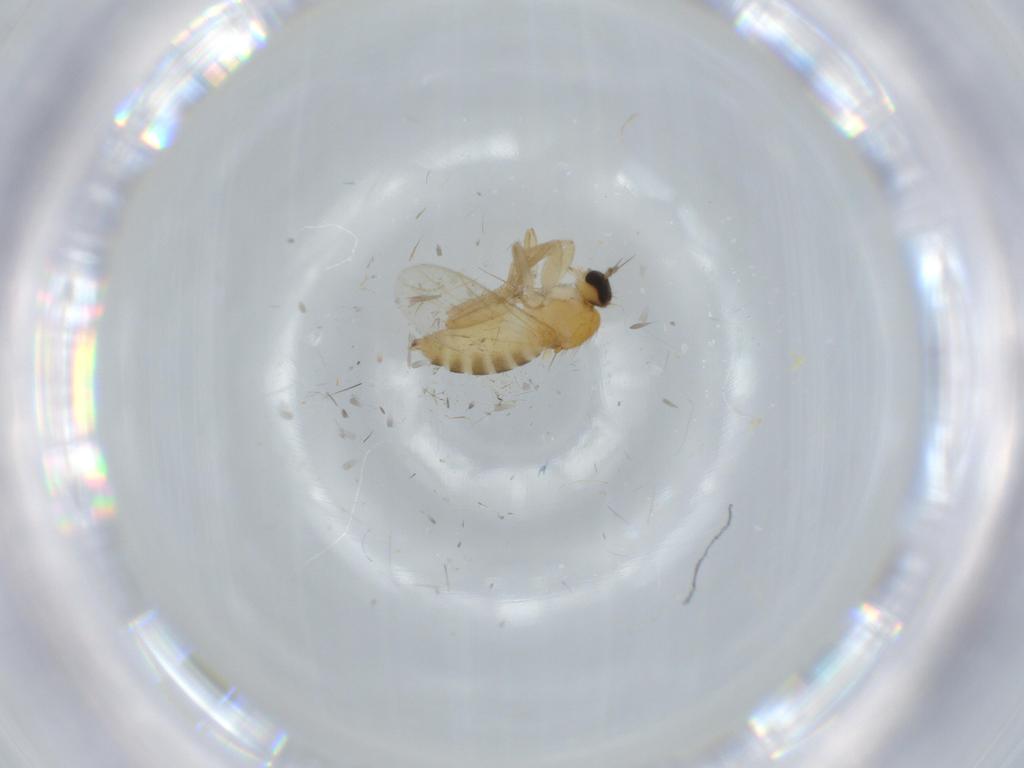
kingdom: Animalia
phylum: Arthropoda
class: Insecta
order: Diptera
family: Hybotidae
